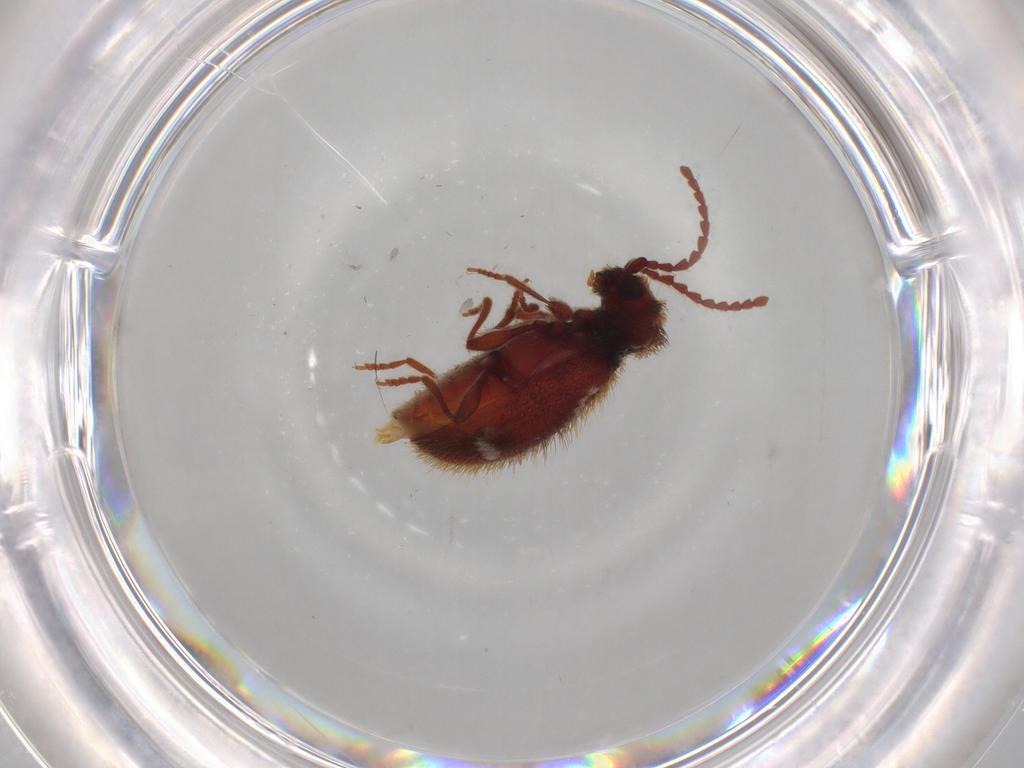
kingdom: Animalia
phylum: Arthropoda
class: Insecta
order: Coleoptera
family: Ptinidae
